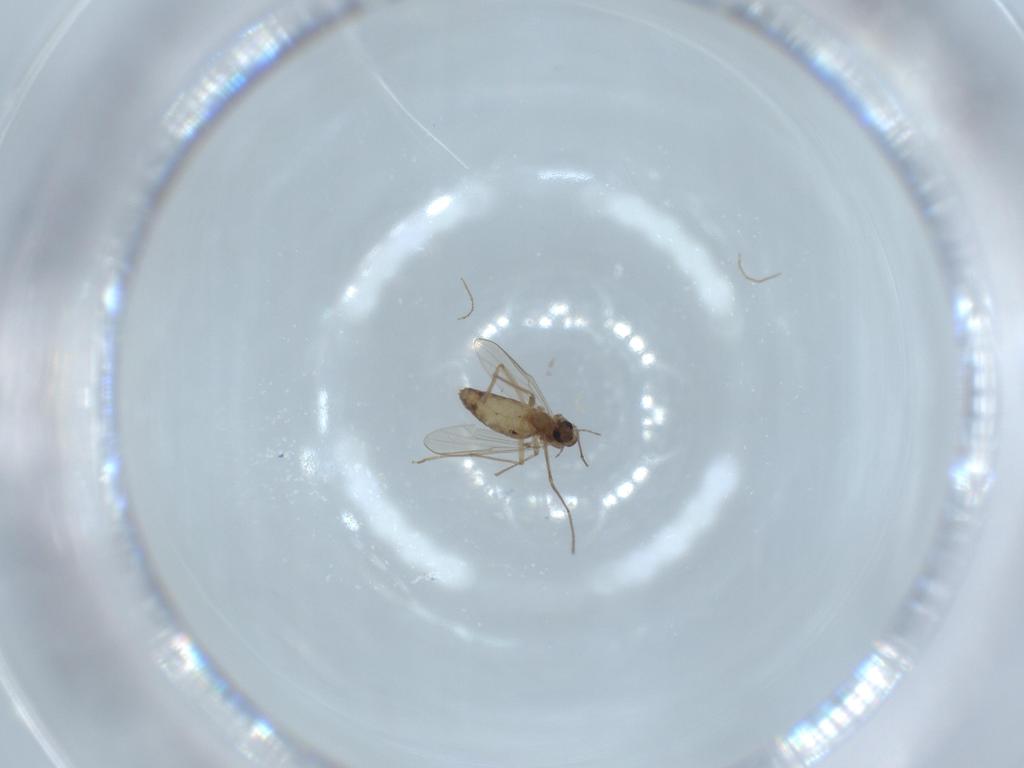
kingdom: Animalia
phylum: Arthropoda
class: Insecta
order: Diptera
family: Chironomidae
